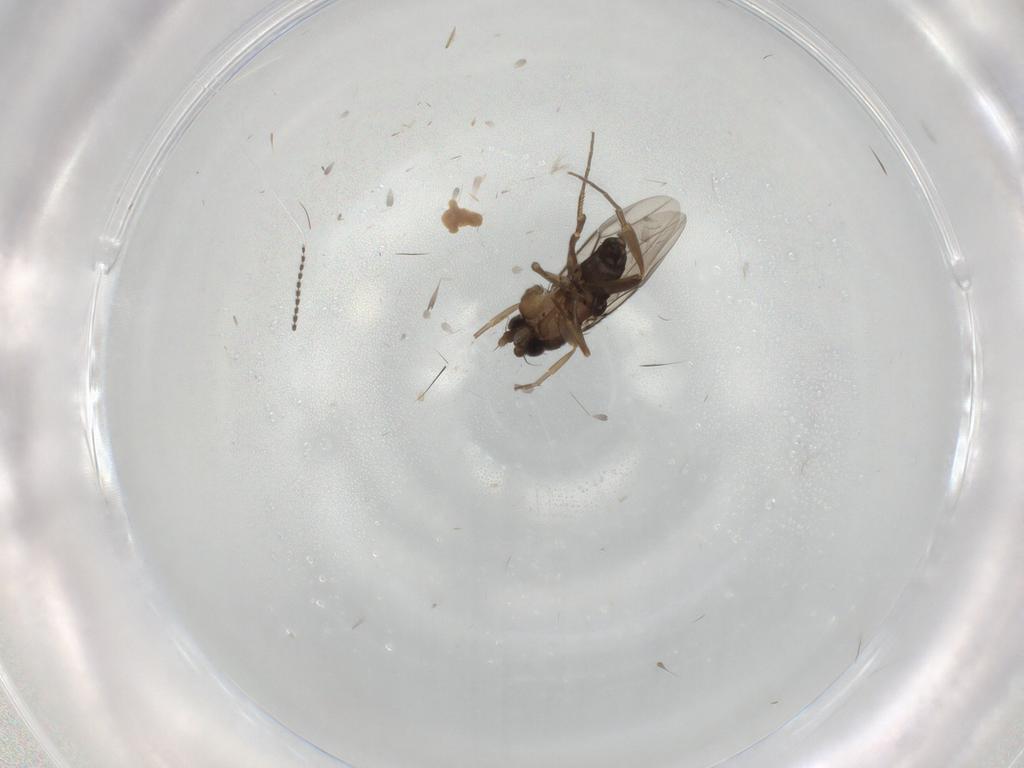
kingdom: Animalia
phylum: Arthropoda
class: Insecta
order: Diptera
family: Phoridae
